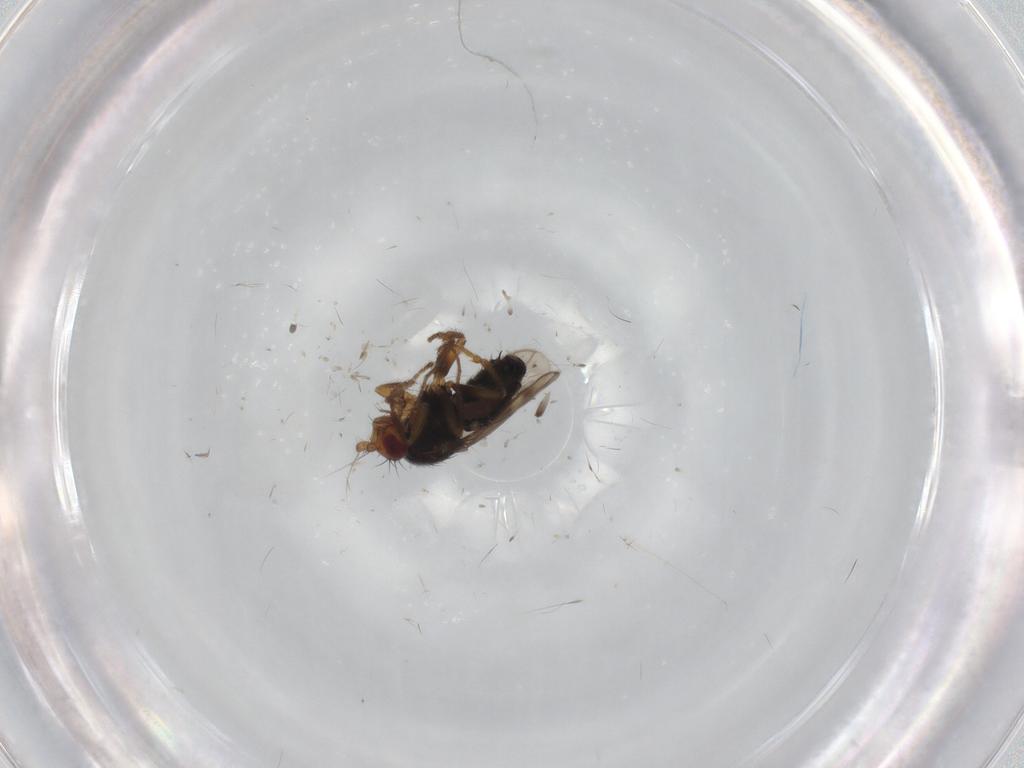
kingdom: Animalia
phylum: Arthropoda
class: Insecta
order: Diptera
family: Sphaeroceridae
